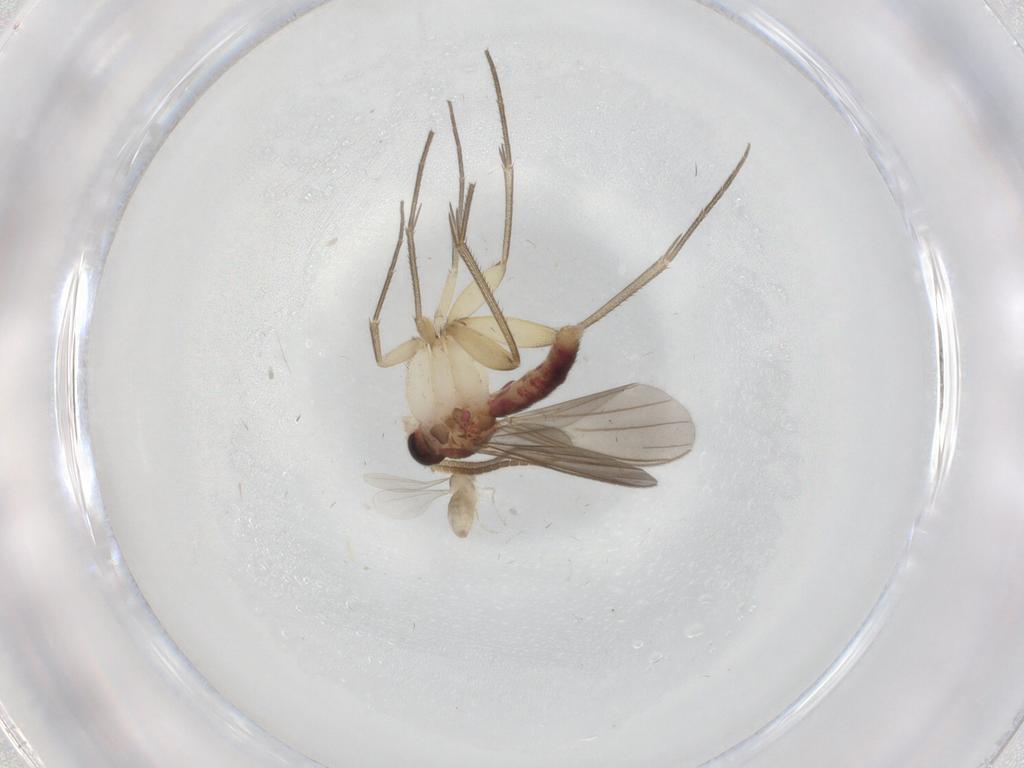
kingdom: Animalia
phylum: Arthropoda
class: Insecta
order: Diptera
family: Mycetophilidae
